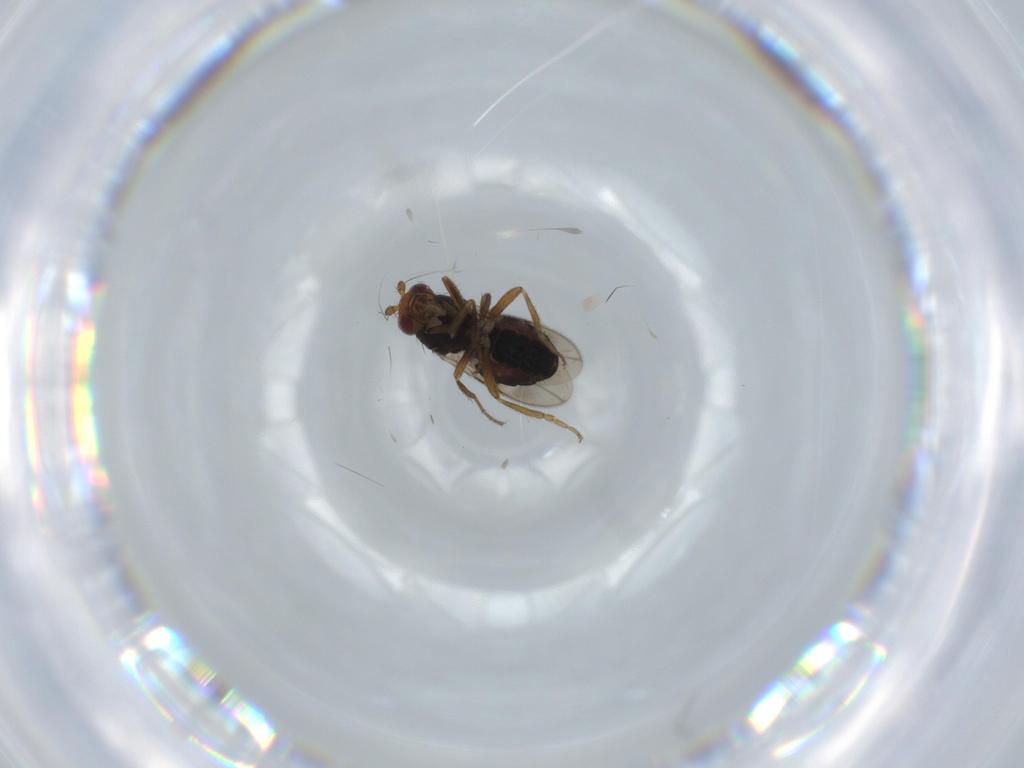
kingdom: Animalia
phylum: Arthropoda
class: Insecta
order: Diptera
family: Sphaeroceridae
